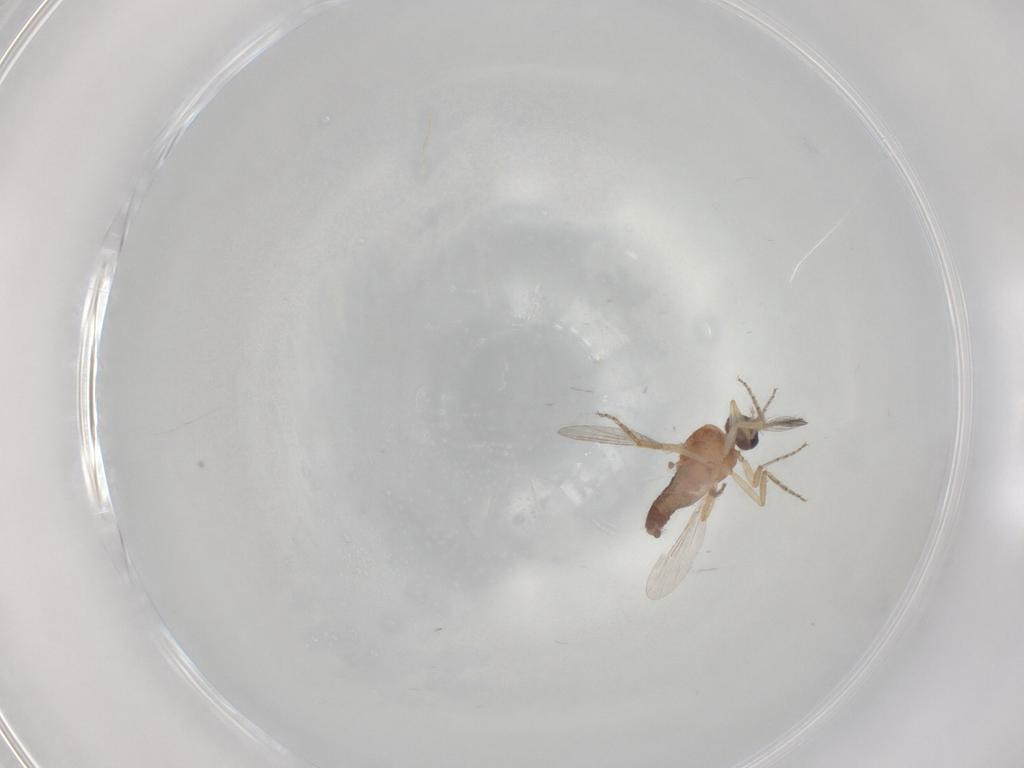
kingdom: Animalia
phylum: Arthropoda
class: Insecta
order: Diptera
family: Ceratopogonidae
